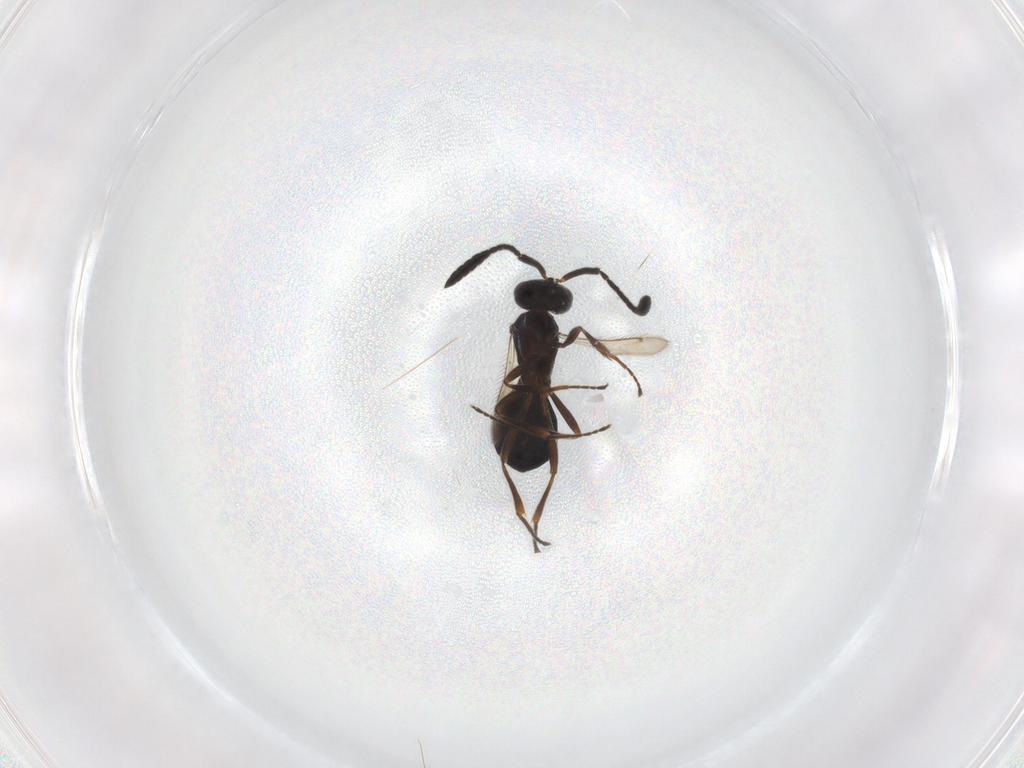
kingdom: Animalia
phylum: Arthropoda
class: Insecta
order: Hymenoptera
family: Scelionidae
